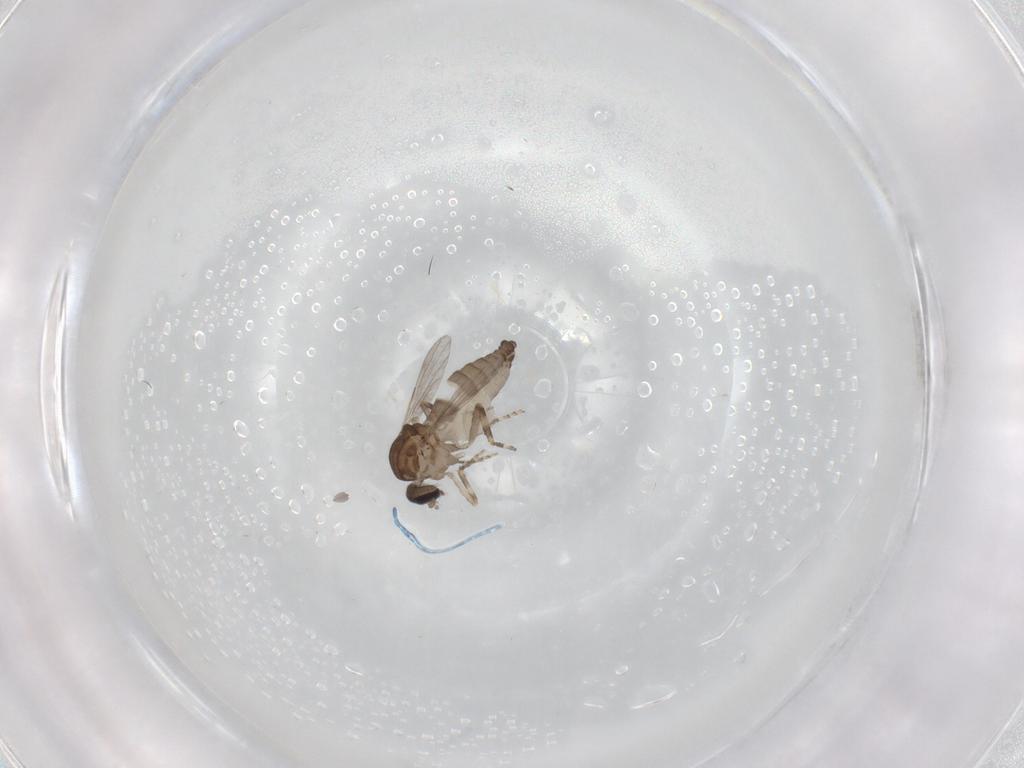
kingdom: Animalia
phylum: Arthropoda
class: Insecta
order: Diptera
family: Ceratopogonidae
